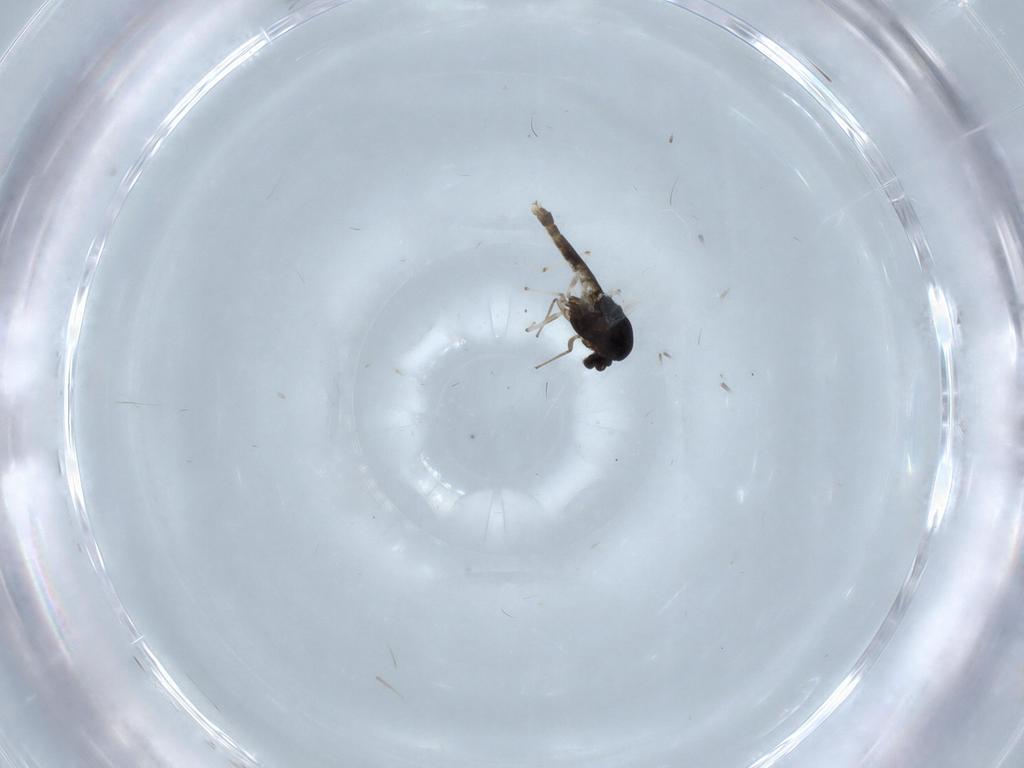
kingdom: Animalia
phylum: Arthropoda
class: Insecta
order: Diptera
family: Chironomidae
